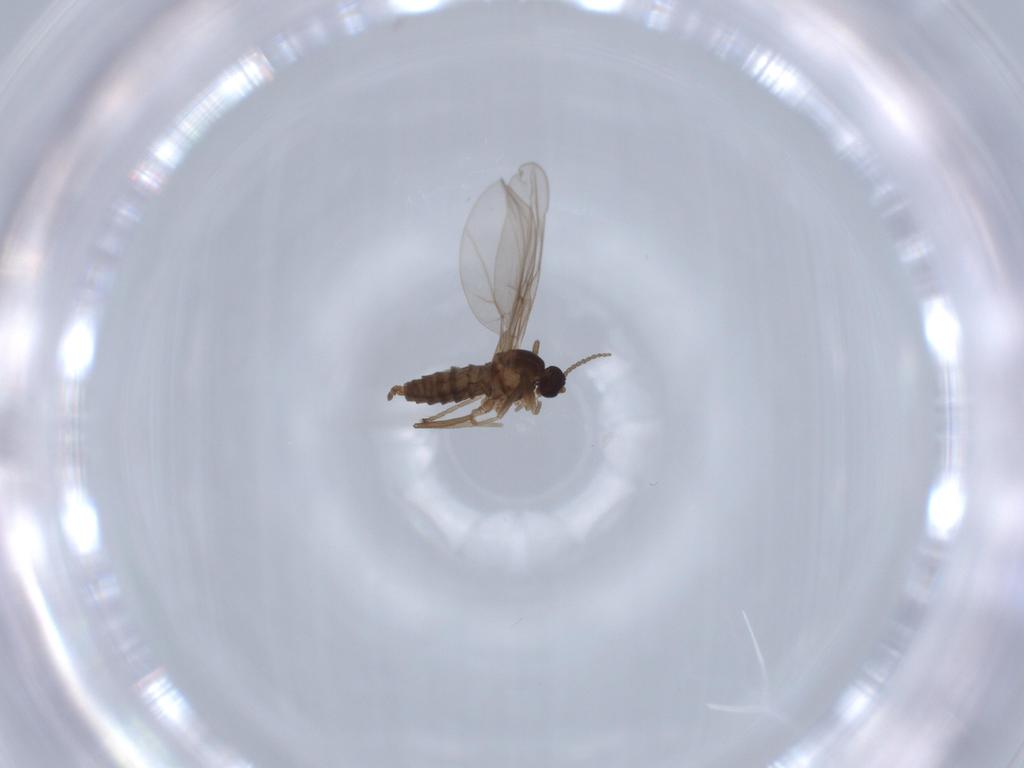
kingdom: Animalia
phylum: Arthropoda
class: Insecta
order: Diptera
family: Mycetophilidae
